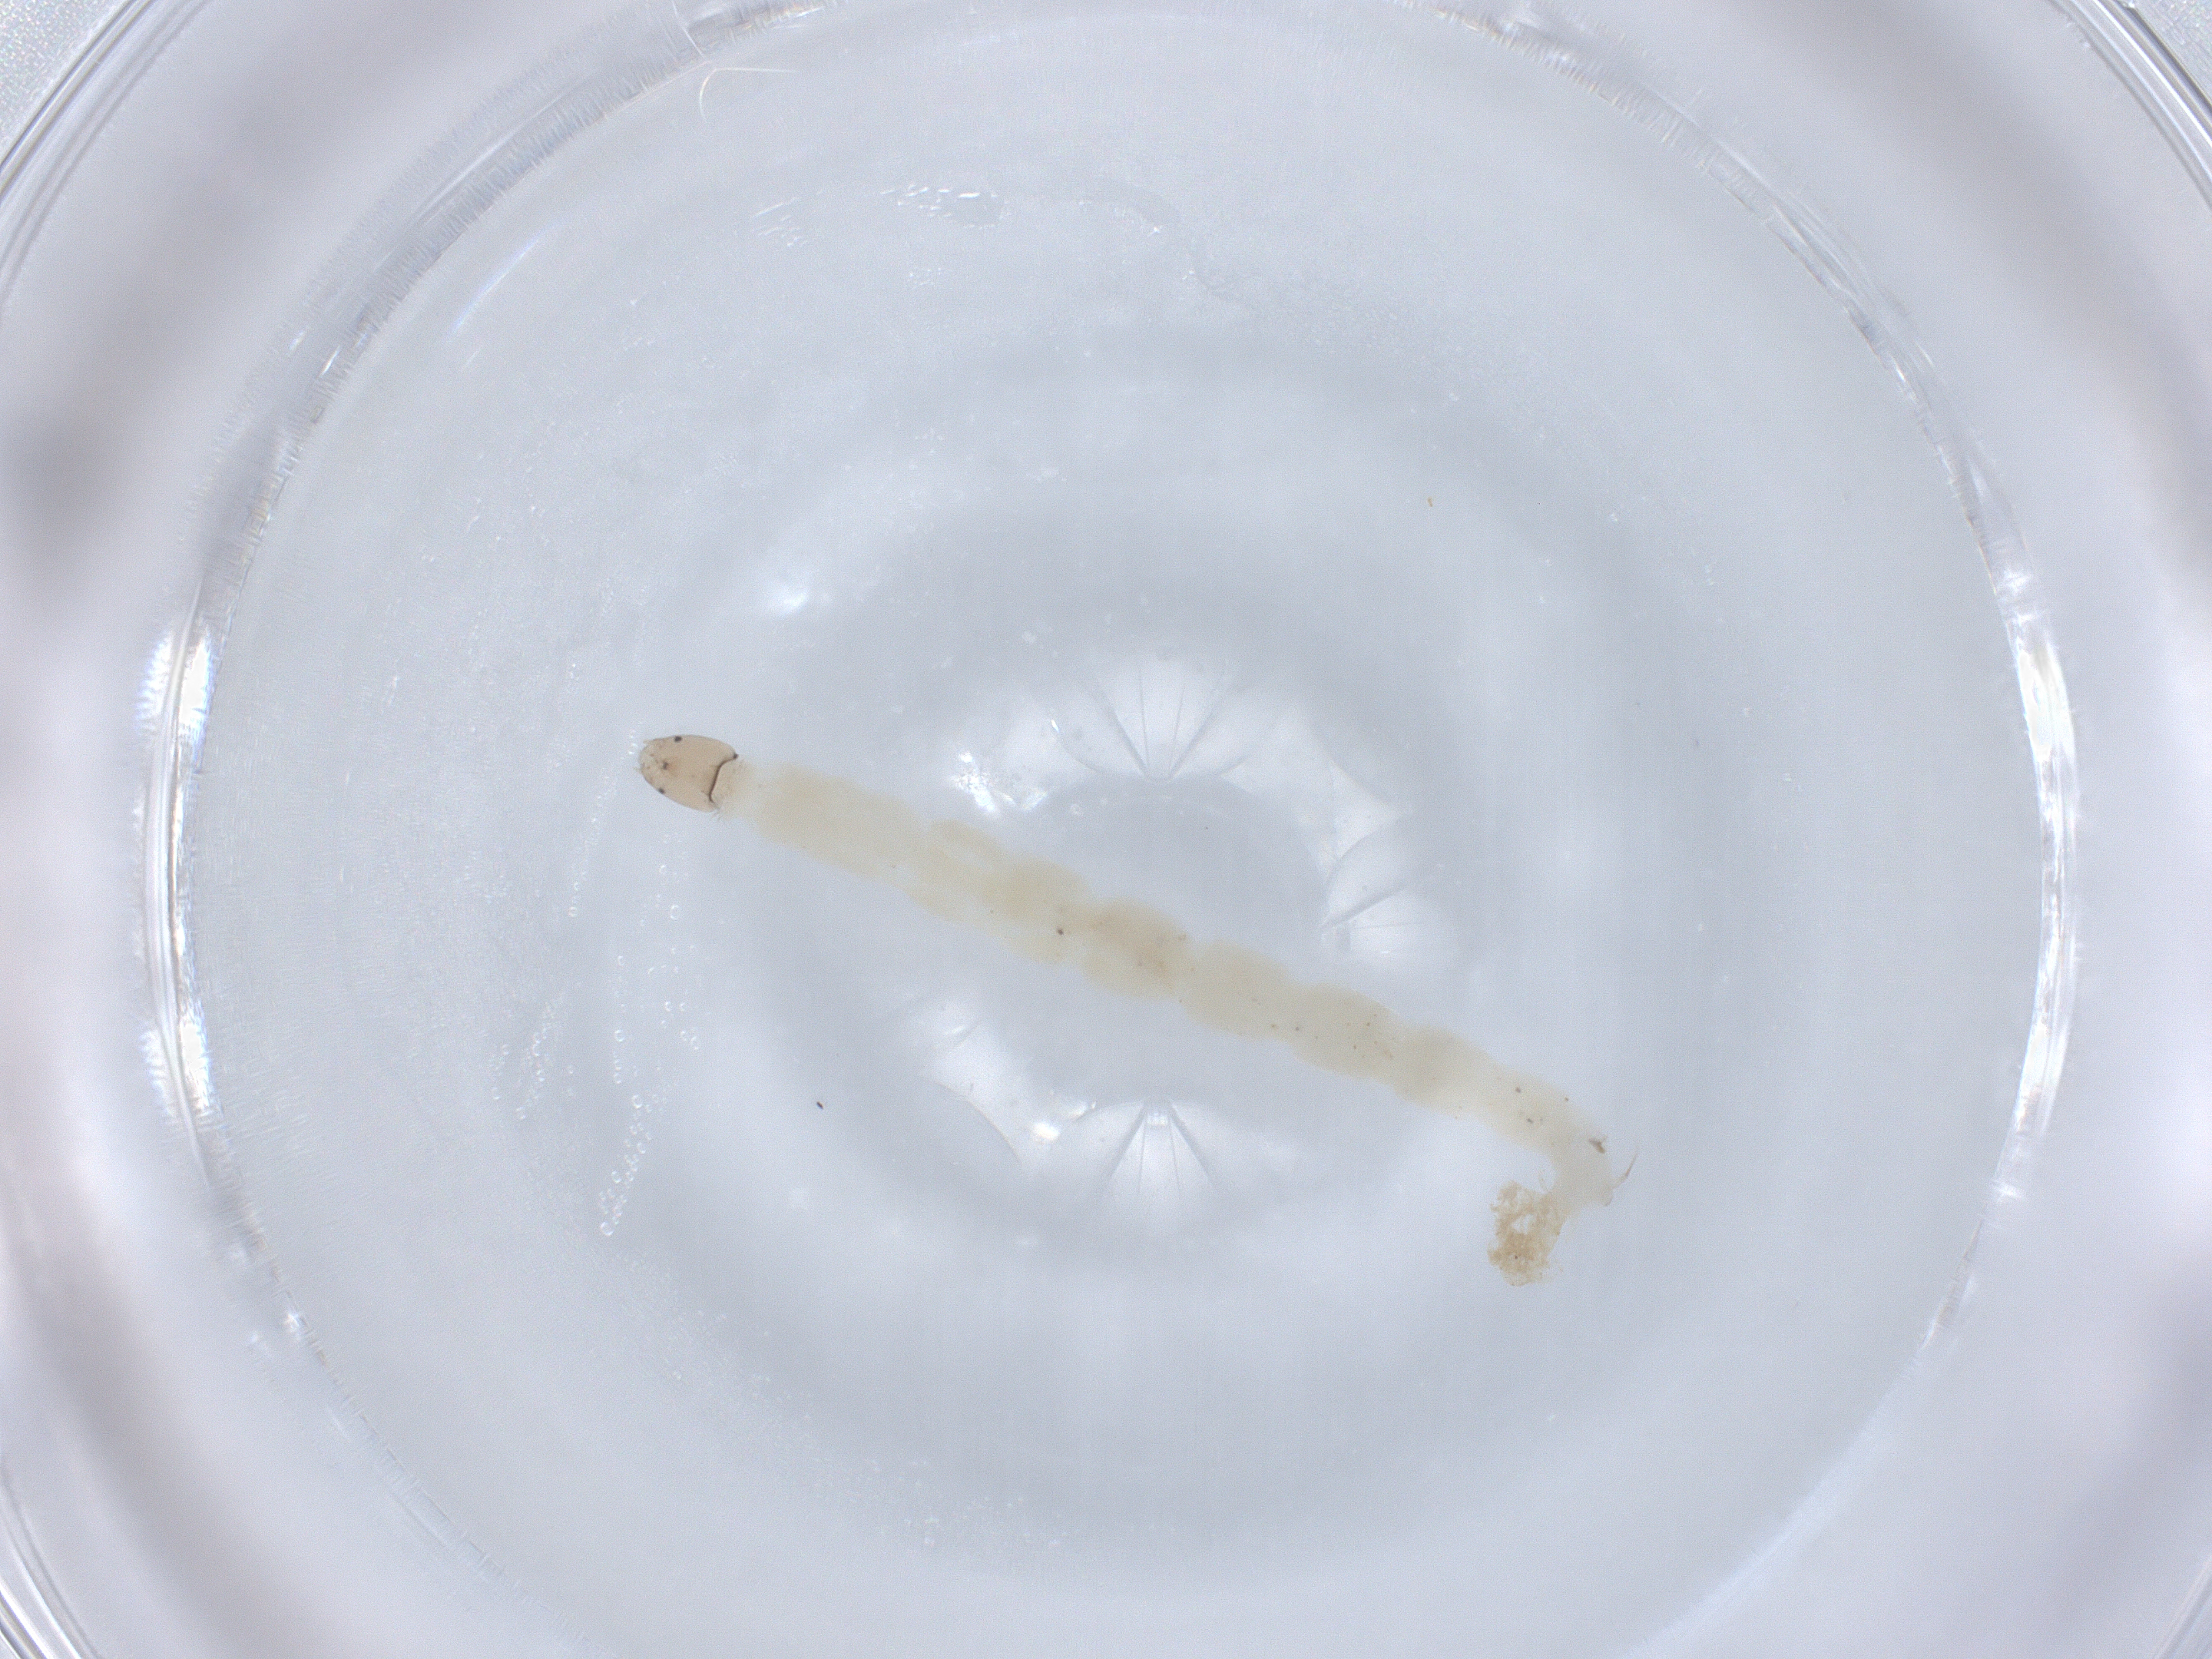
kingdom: Animalia
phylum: Arthropoda
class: Insecta
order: Diptera
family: Chironomidae
